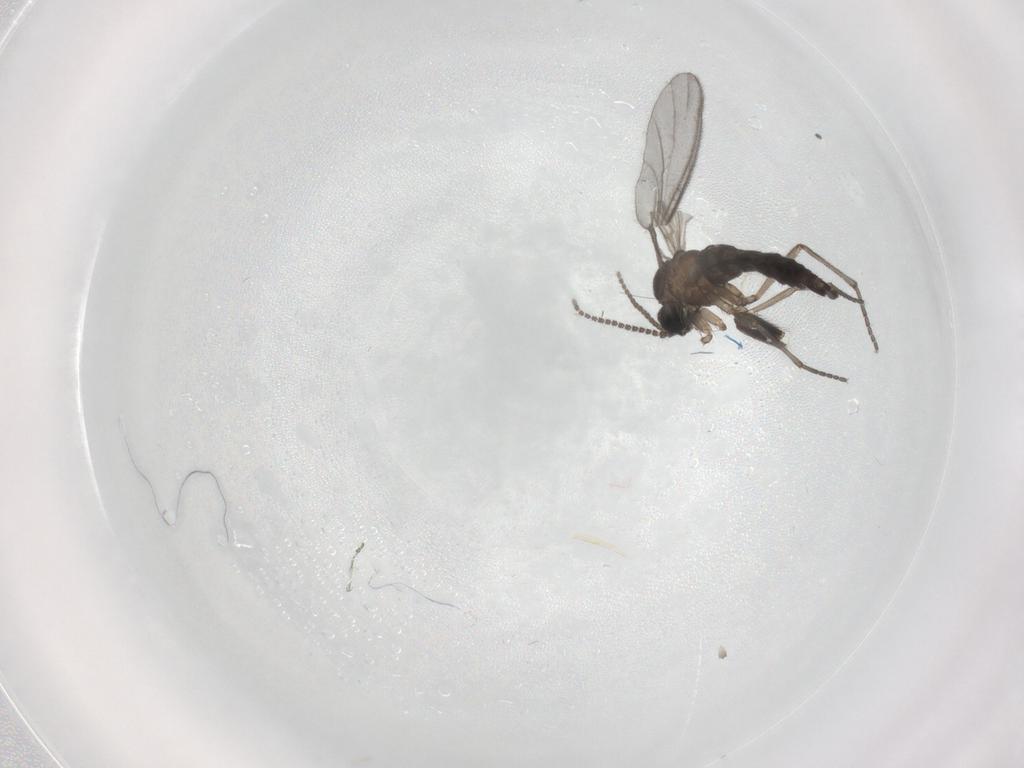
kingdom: Animalia
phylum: Arthropoda
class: Insecta
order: Diptera
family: Sciaridae
